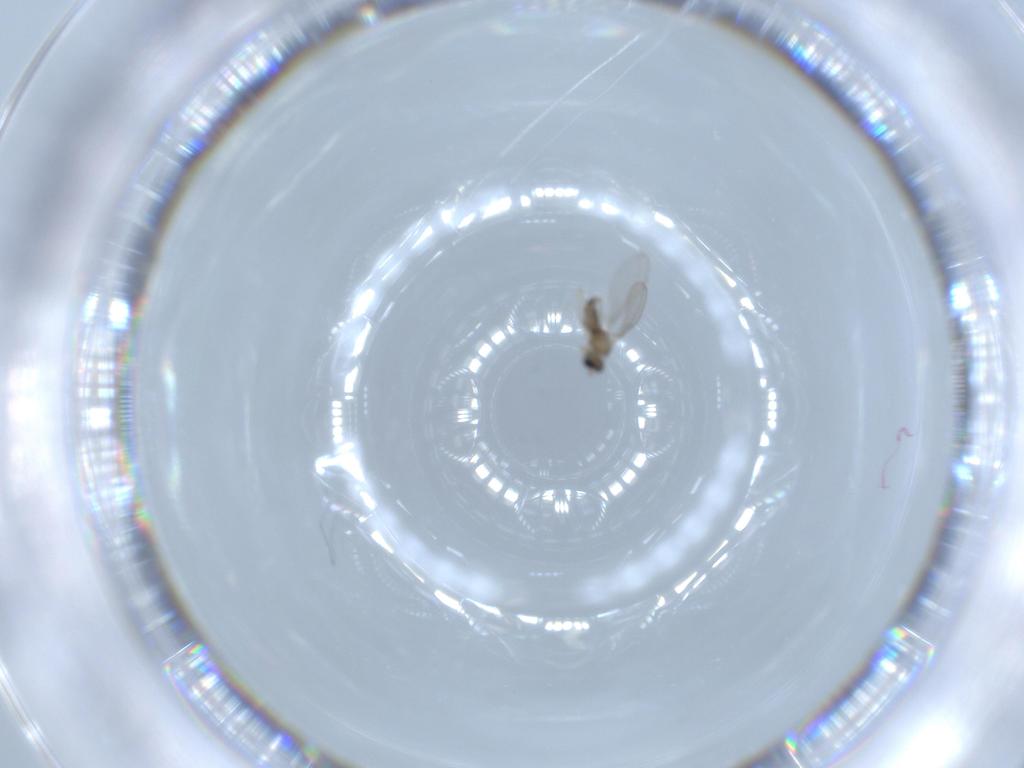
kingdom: Animalia
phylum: Arthropoda
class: Insecta
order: Diptera
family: Cecidomyiidae
